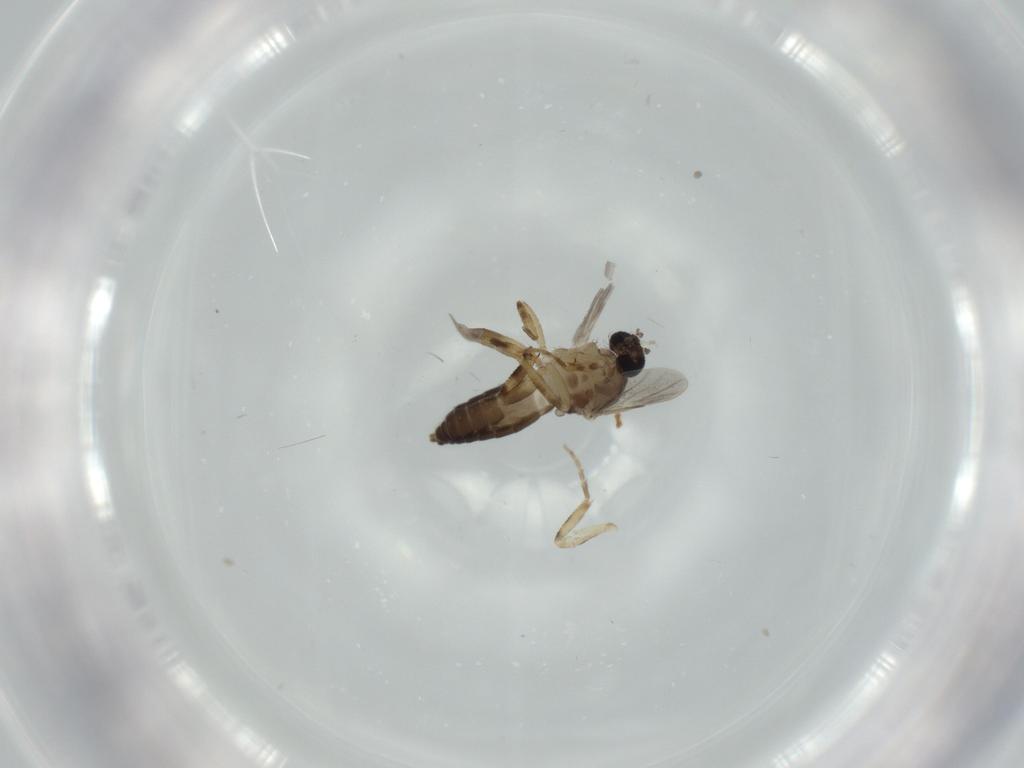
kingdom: Animalia
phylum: Arthropoda
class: Insecta
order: Diptera
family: Ceratopogonidae
